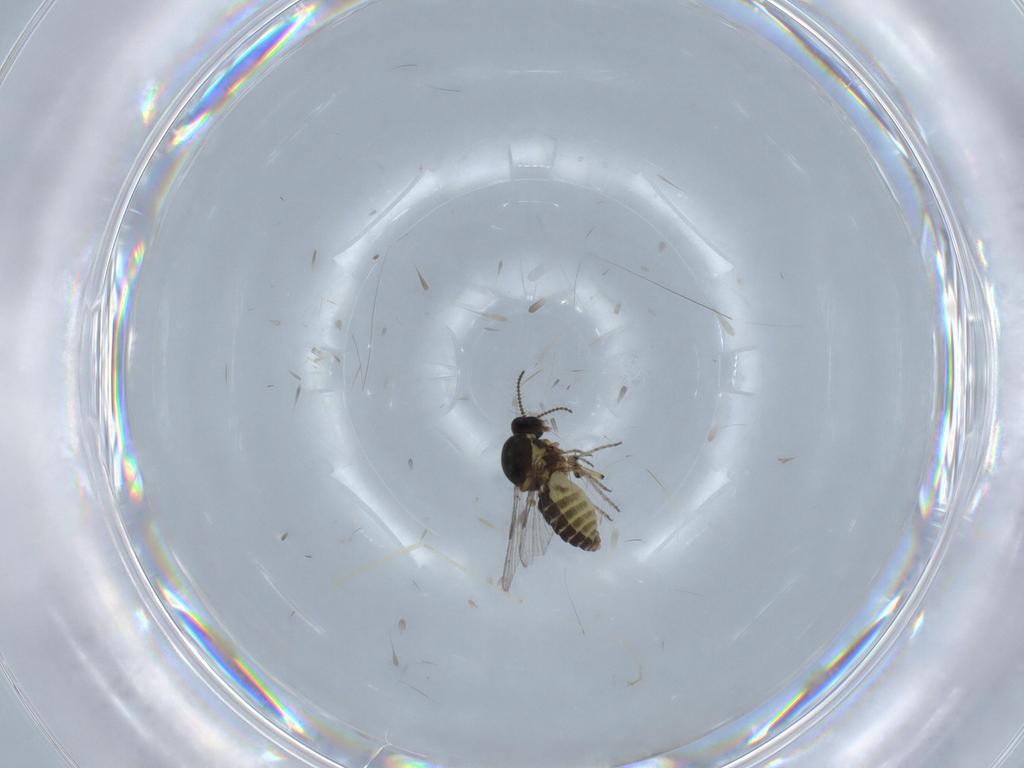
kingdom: Animalia
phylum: Arthropoda
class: Insecta
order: Diptera
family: Cecidomyiidae
